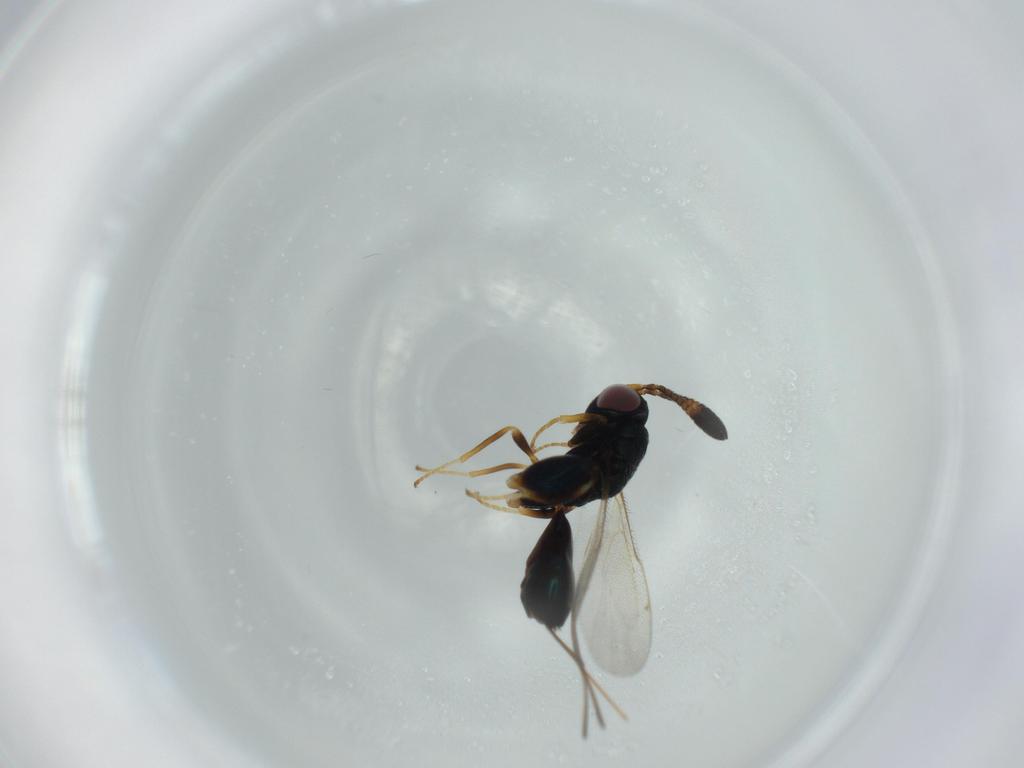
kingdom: Animalia
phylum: Arthropoda
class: Insecta
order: Hymenoptera
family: Torymidae
